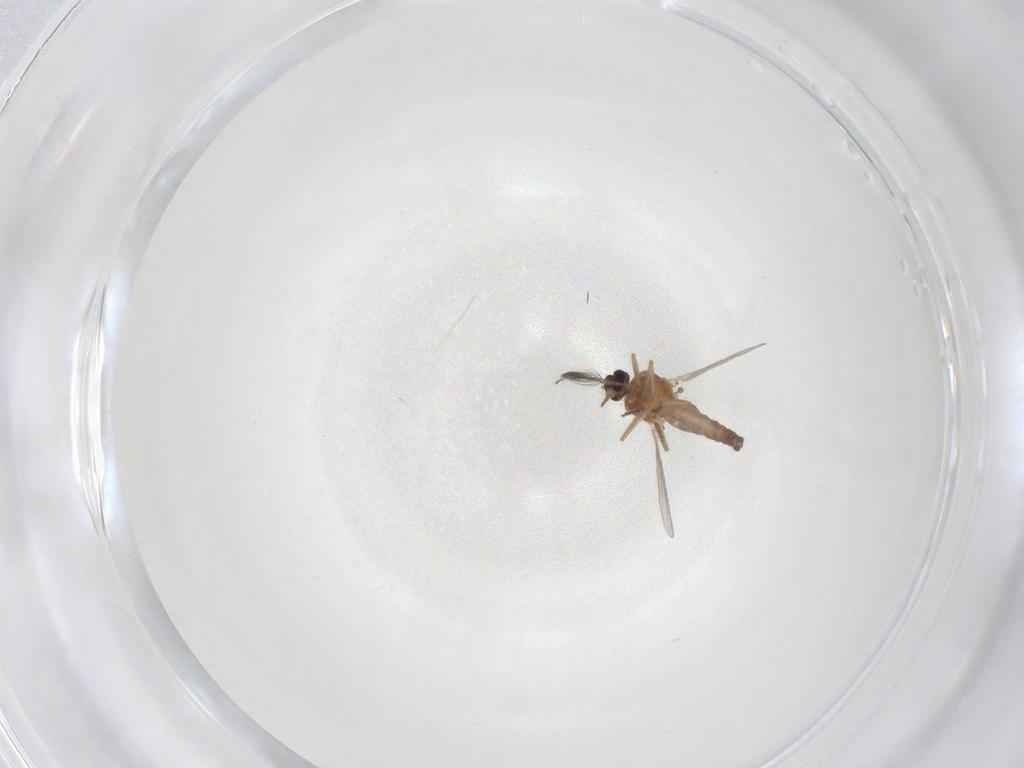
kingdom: Animalia
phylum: Arthropoda
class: Insecta
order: Diptera
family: Ceratopogonidae
